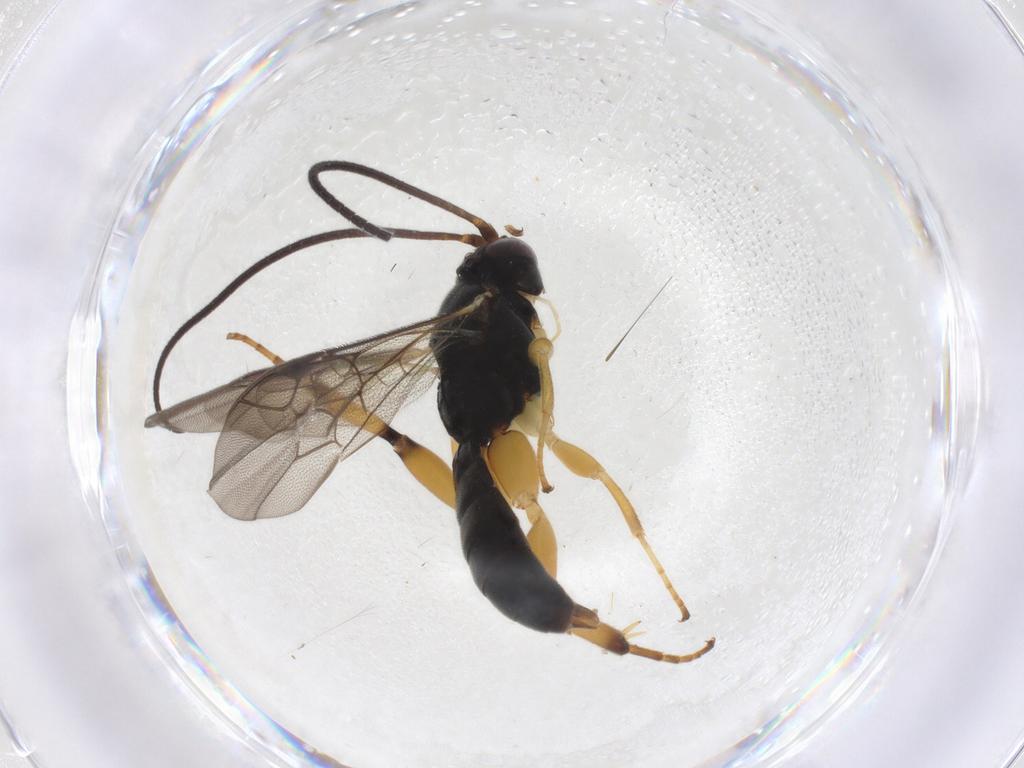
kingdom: Animalia
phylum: Arthropoda
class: Insecta
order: Hymenoptera
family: Ichneumonidae
